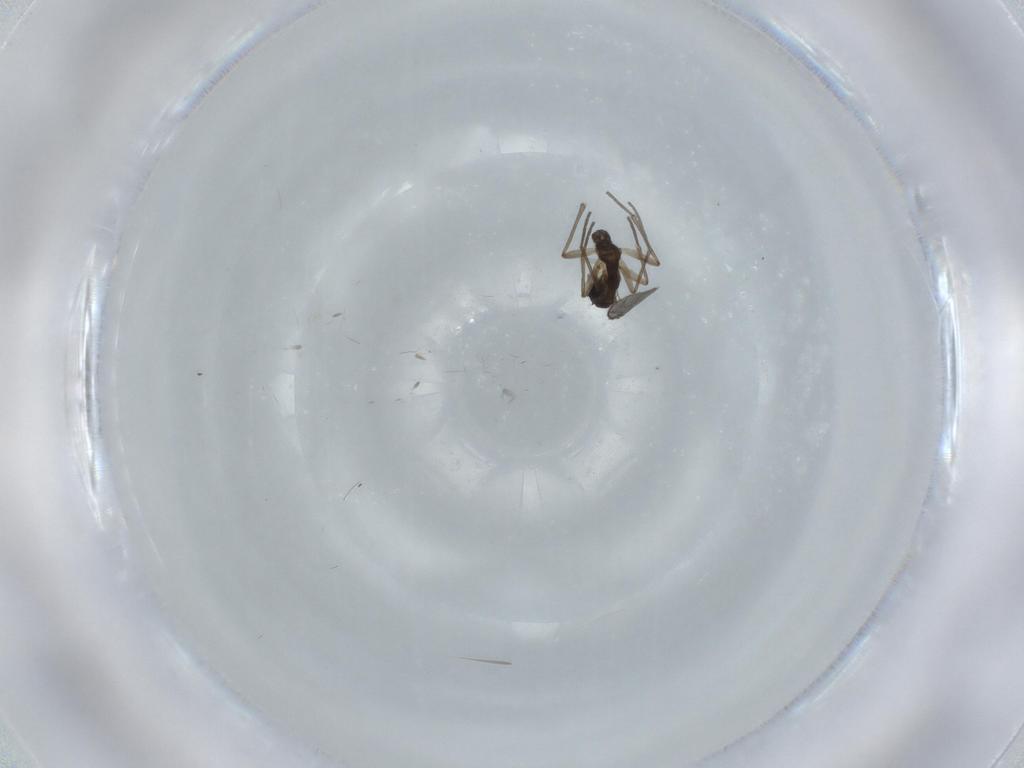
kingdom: Animalia
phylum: Arthropoda
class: Insecta
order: Diptera
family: Sciaridae
